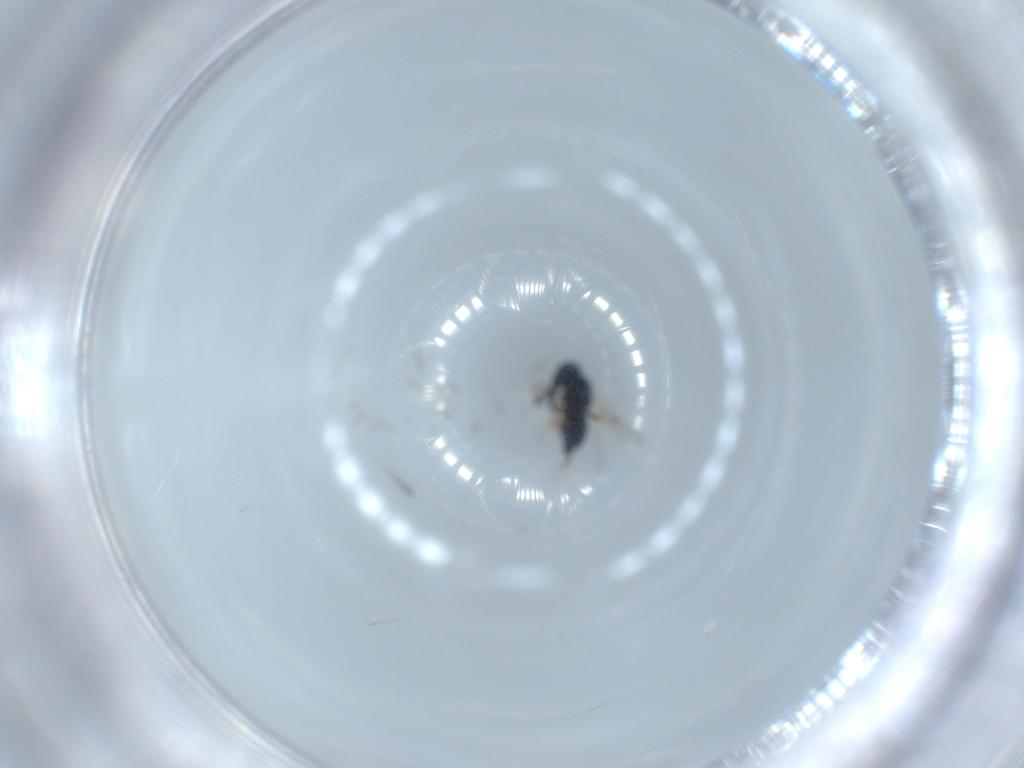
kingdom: Animalia
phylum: Arthropoda
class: Insecta
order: Hymenoptera
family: Scelionidae
